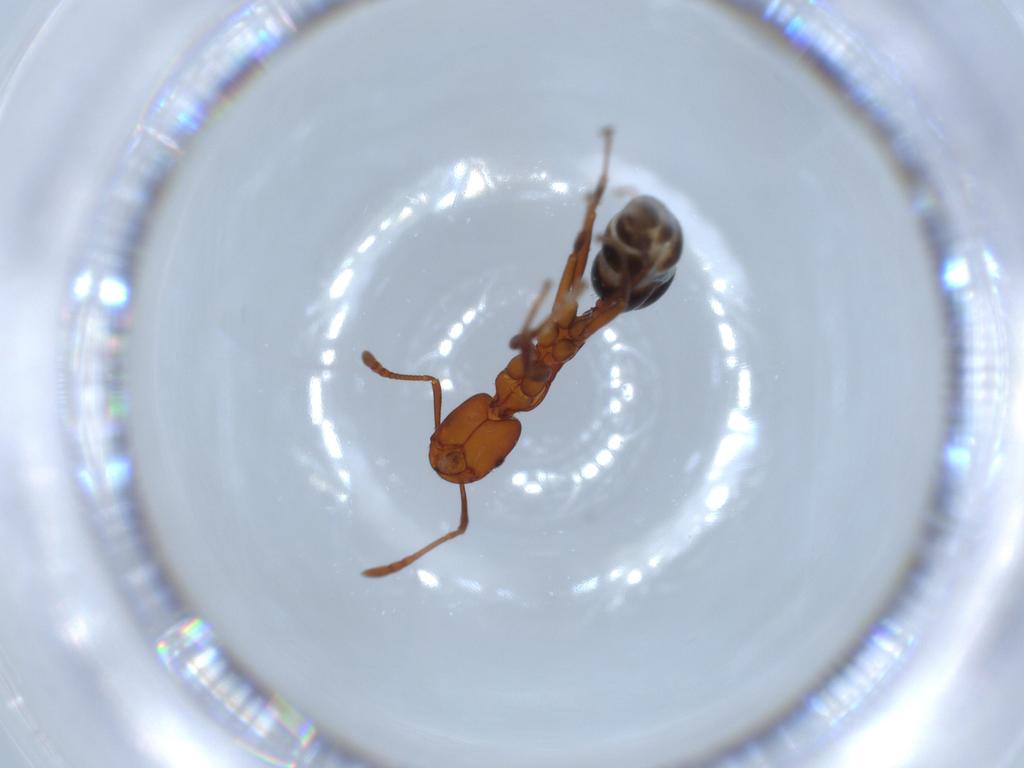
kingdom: Animalia
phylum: Arthropoda
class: Insecta
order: Hymenoptera
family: Formicidae
